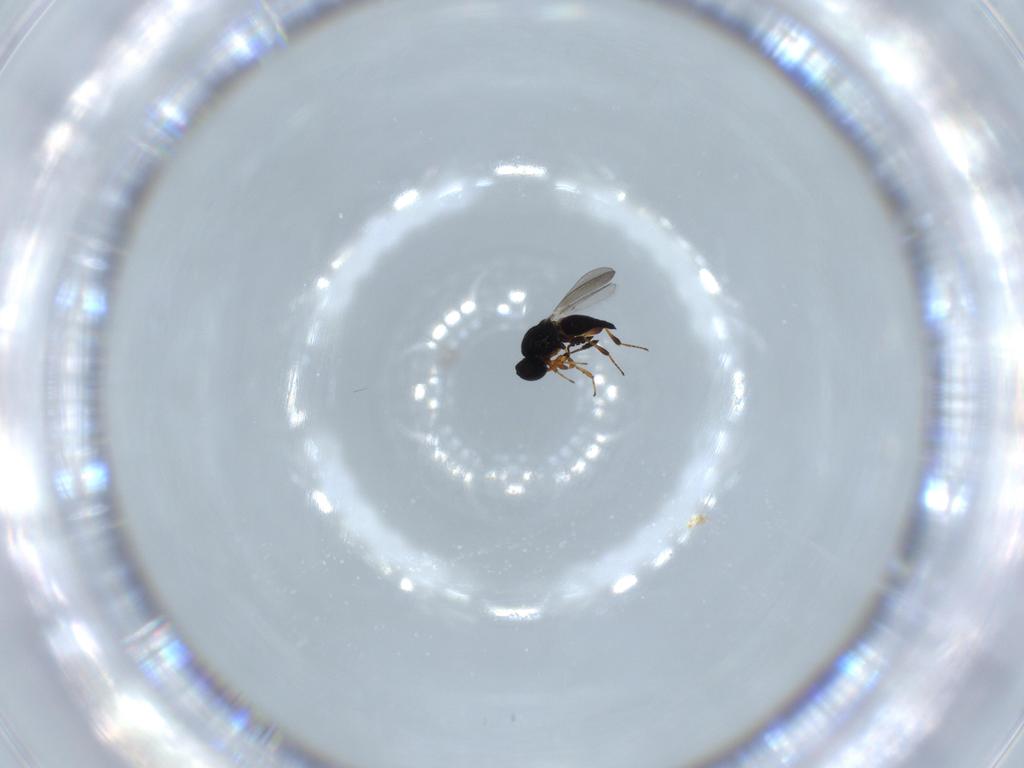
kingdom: Animalia
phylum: Arthropoda
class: Insecta
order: Hymenoptera
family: Platygastridae
